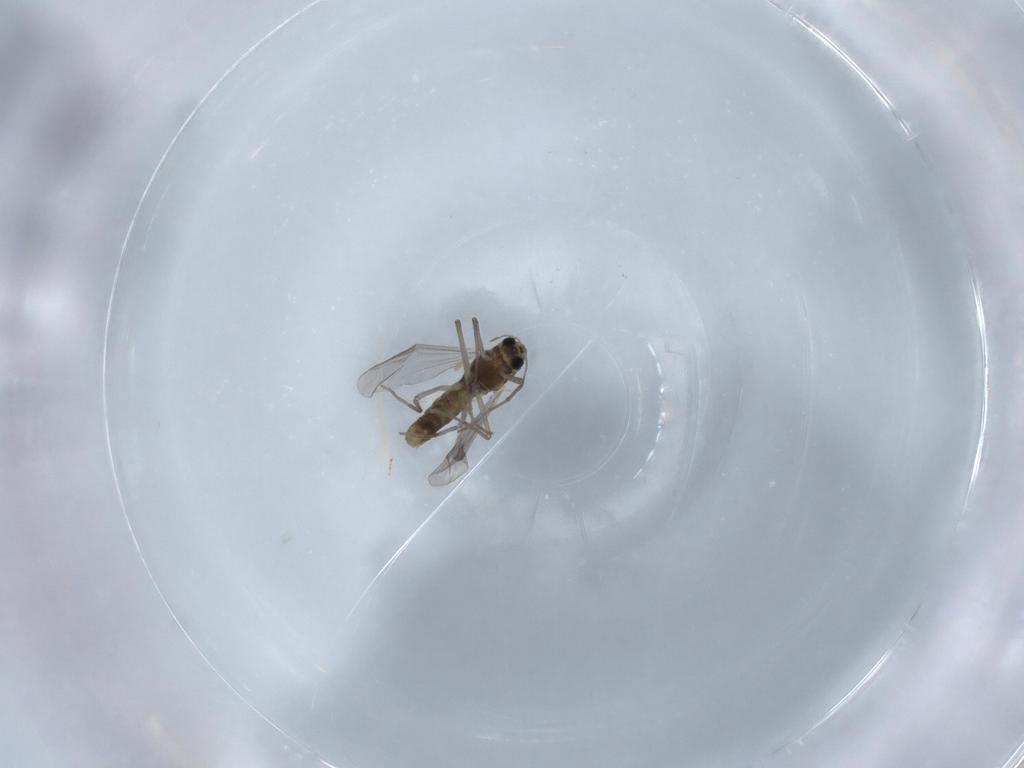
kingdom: Animalia
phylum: Arthropoda
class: Insecta
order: Diptera
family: Chironomidae
